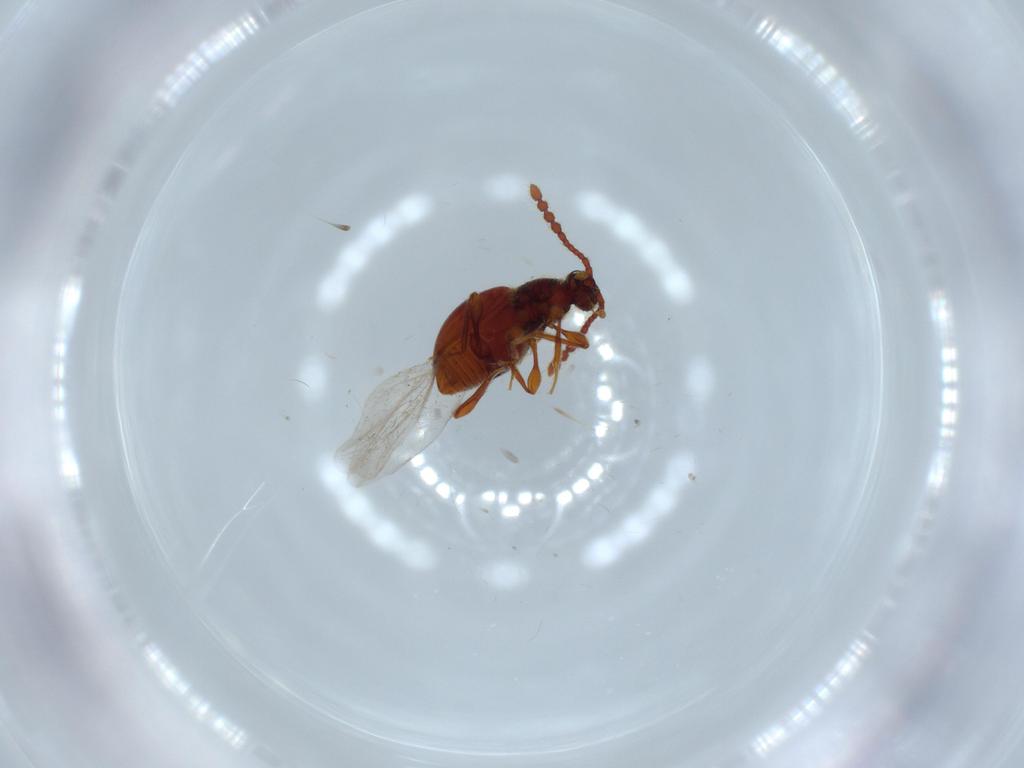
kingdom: Animalia
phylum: Arthropoda
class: Insecta
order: Coleoptera
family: Staphylinidae
